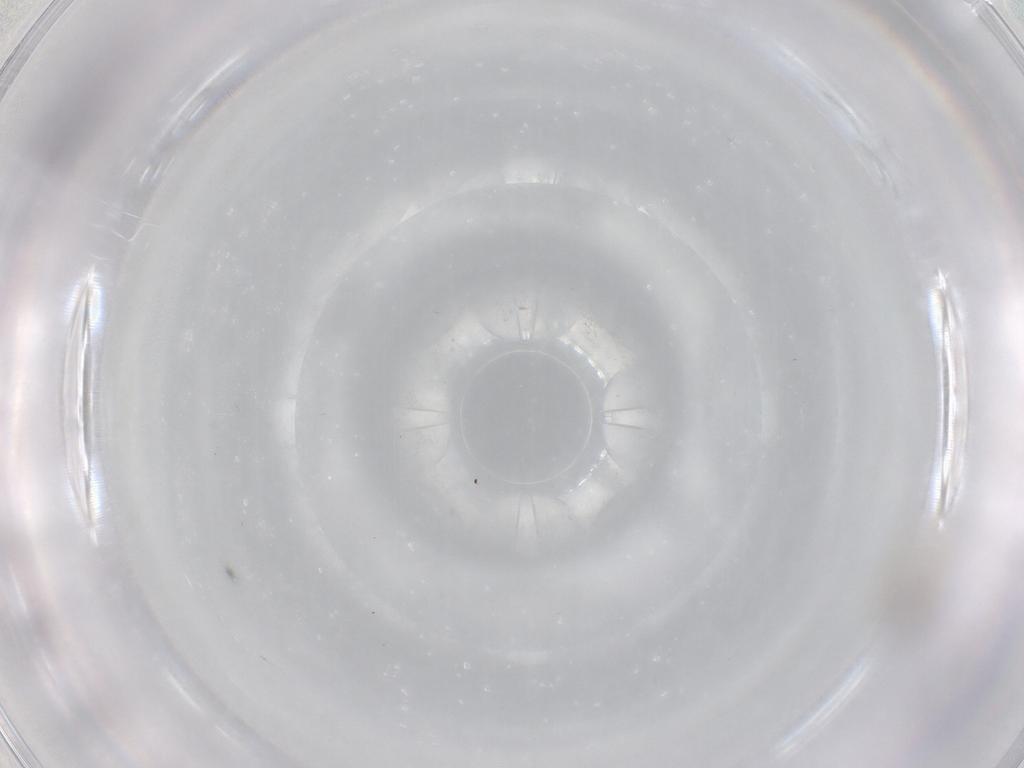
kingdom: Animalia
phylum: Arthropoda
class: Insecta
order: Diptera
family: Cecidomyiidae
